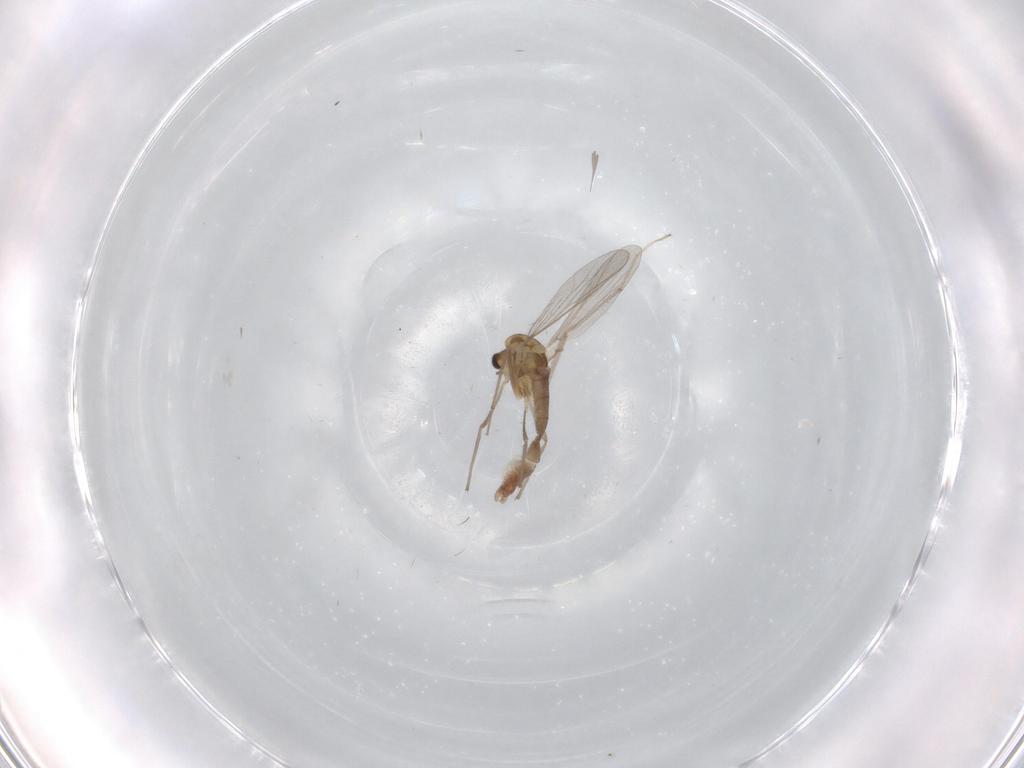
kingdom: Animalia
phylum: Arthropoda
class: Insecta
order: Diptera
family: Chironomidae
